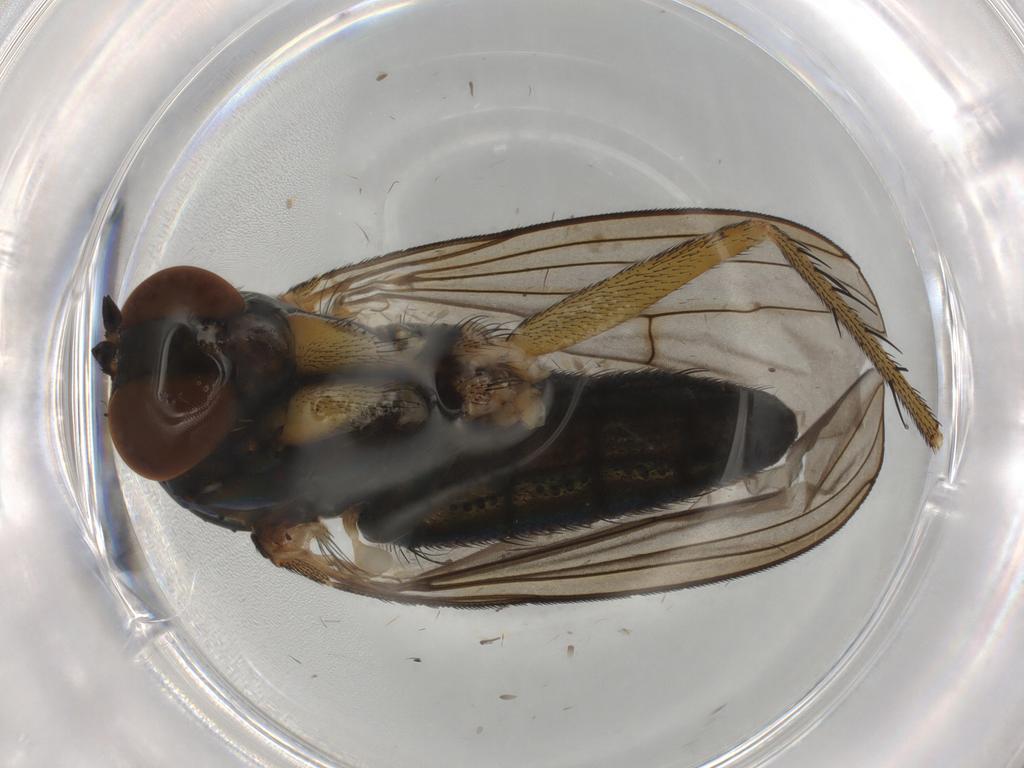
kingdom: Animalia
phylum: Arthropoda
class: Insecta
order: Diptera
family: Dolichopodidae
